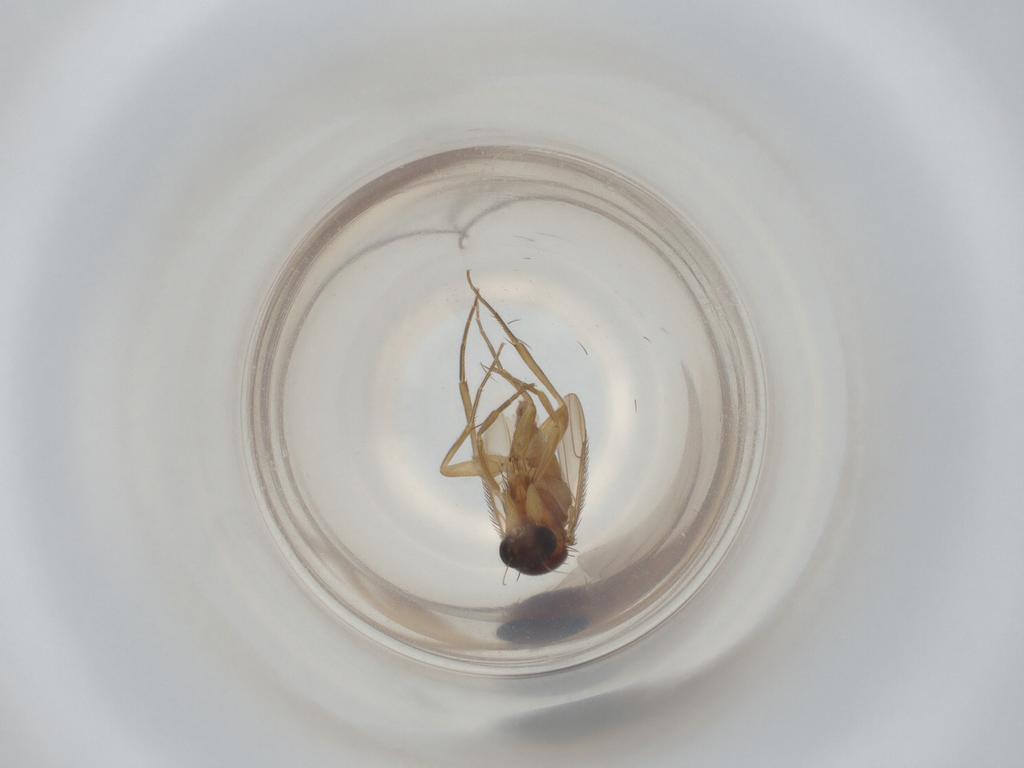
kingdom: Animalia
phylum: Arthropoda
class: Insecta
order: Diptera
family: Phoridae
